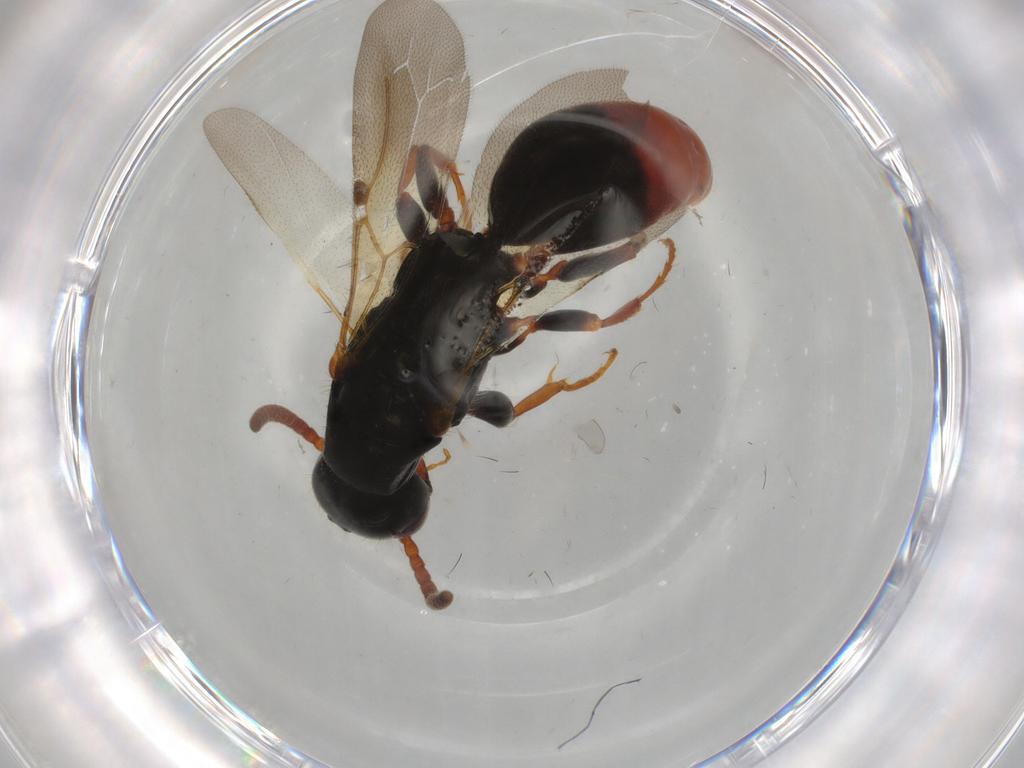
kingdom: Animalia
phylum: Arthropoda
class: Insecta
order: Hymenoptera
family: Bethylidae
